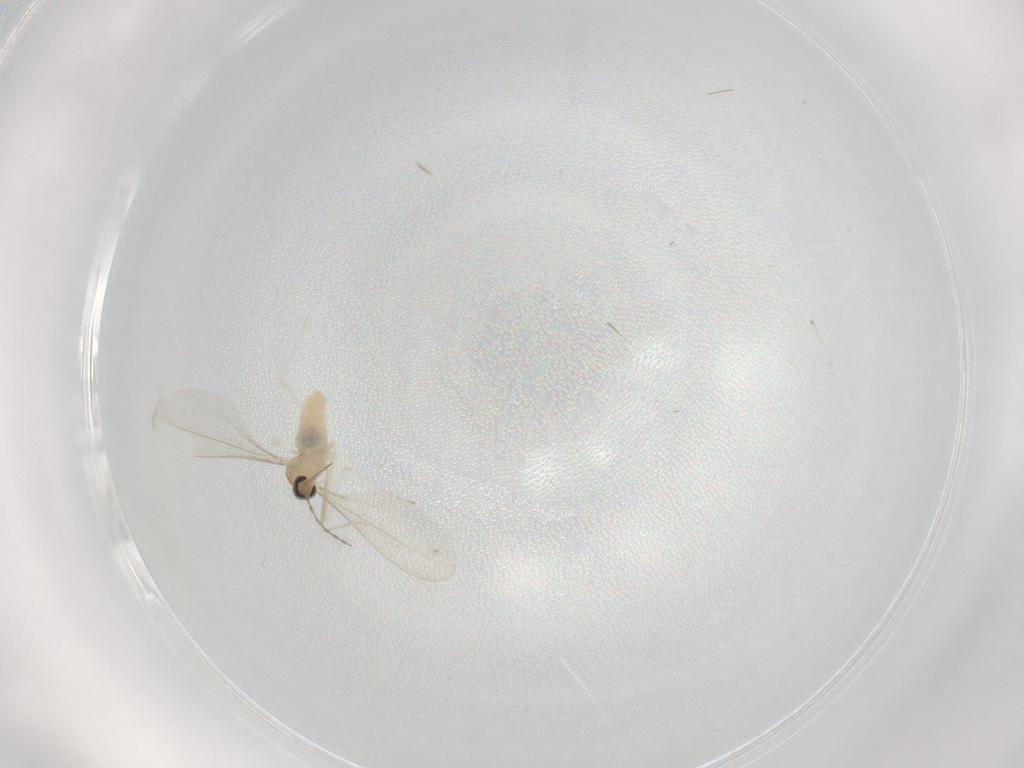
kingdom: Animalia
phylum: Arthropoda
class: Insecta
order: Diptera
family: Cecidomyiidae
